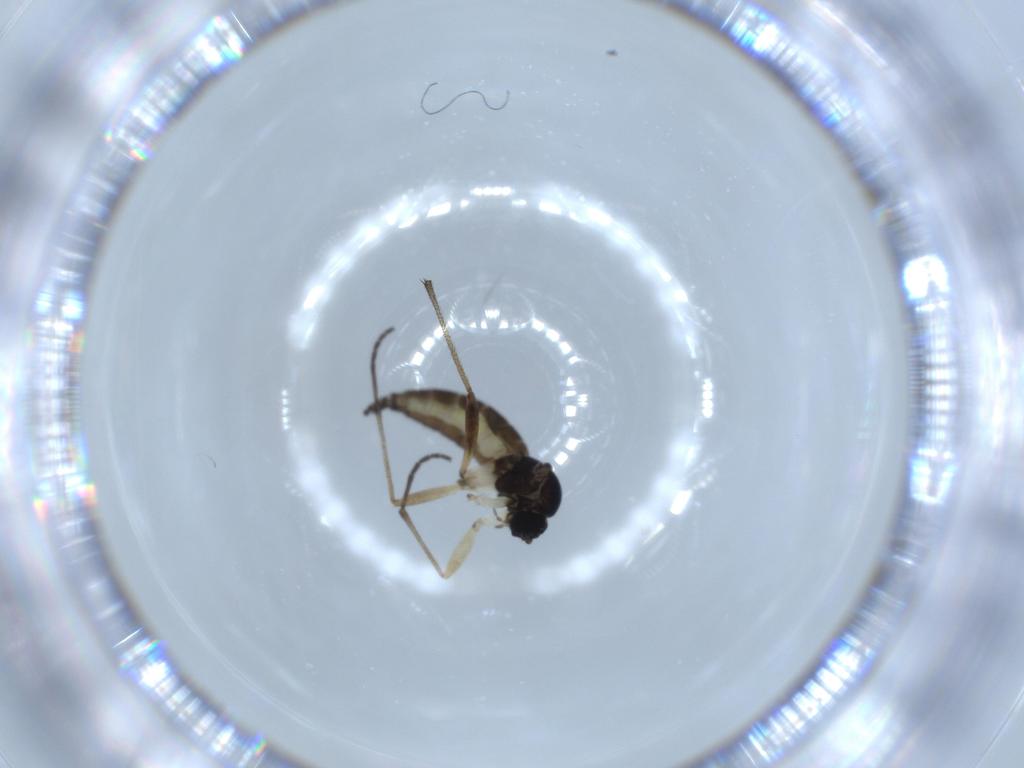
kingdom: Animalia
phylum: Arthropoda
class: Insecta
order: Diptera
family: Sciaridae
